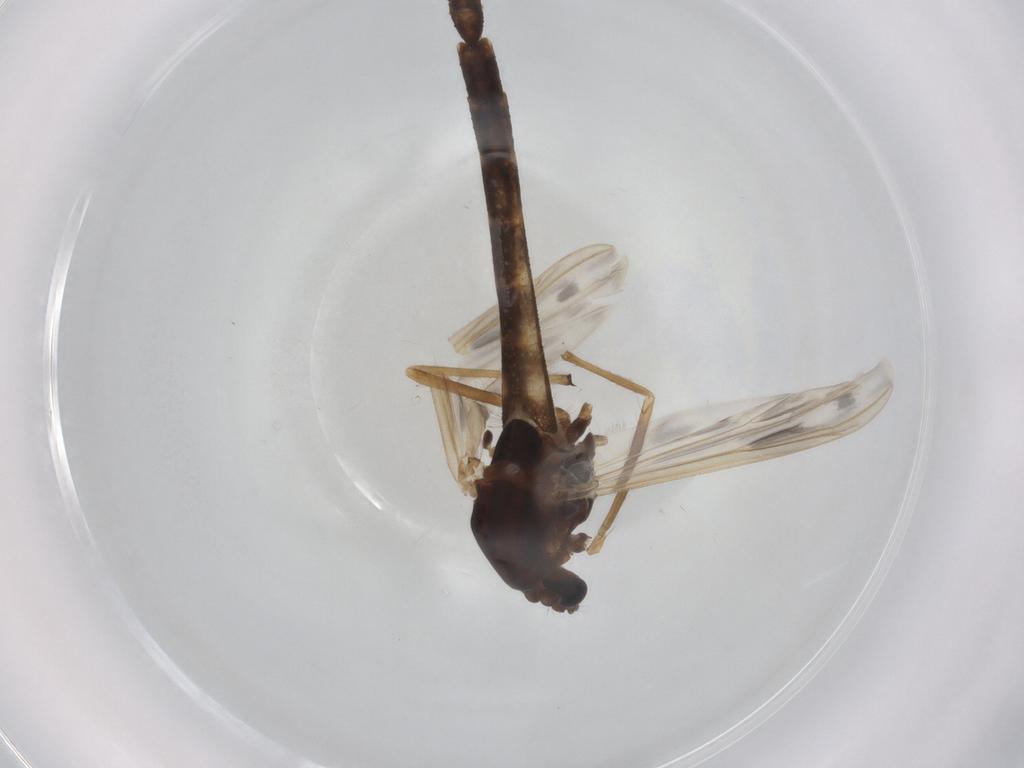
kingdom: Animalia
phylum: Arthropoda
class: Insecta
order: Diptera
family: Chironomidae
